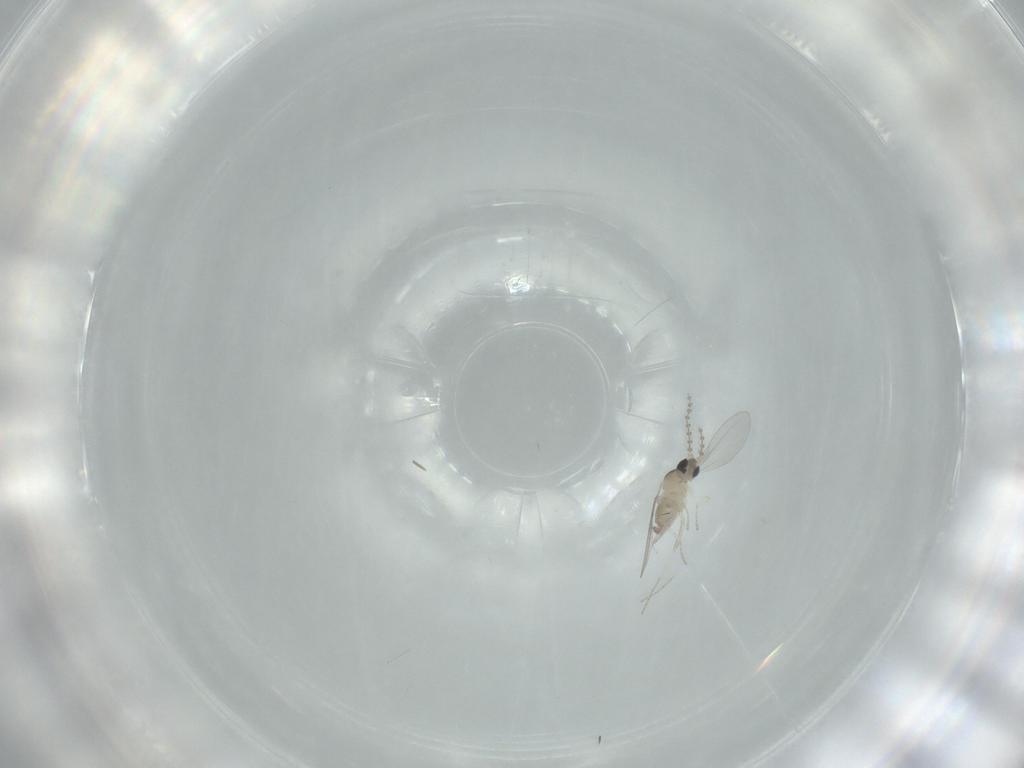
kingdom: Animalia
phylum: Arthropoda
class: Insecta
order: Diptera
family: Cecidomyiidae
